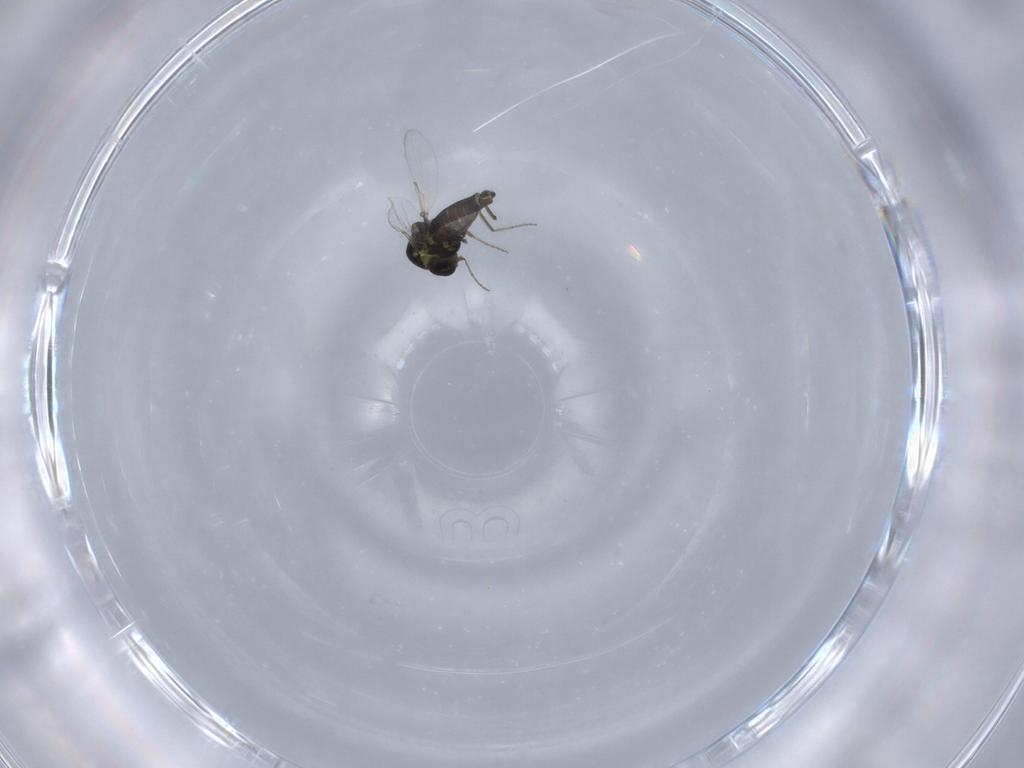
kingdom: Animalia
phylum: Arthropoda
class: Insecta
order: Diptera
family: Ceratopogonidae
